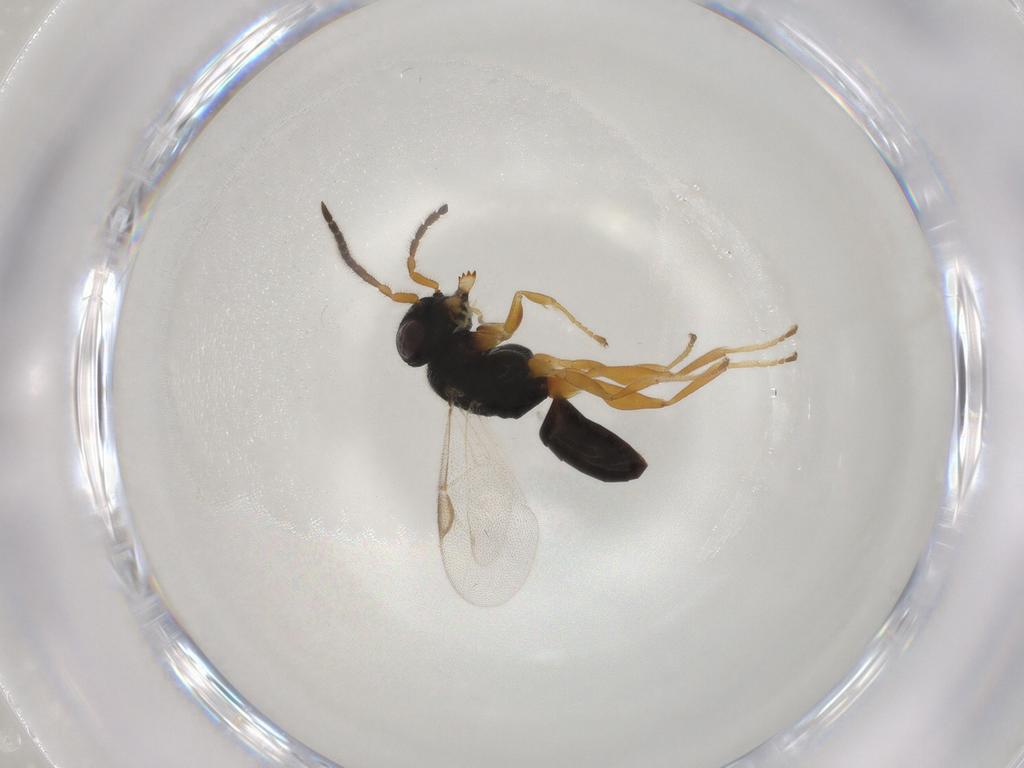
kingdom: Animalia
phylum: Arthropoda
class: Insecta
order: Hymenoptera
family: Dryinidae
